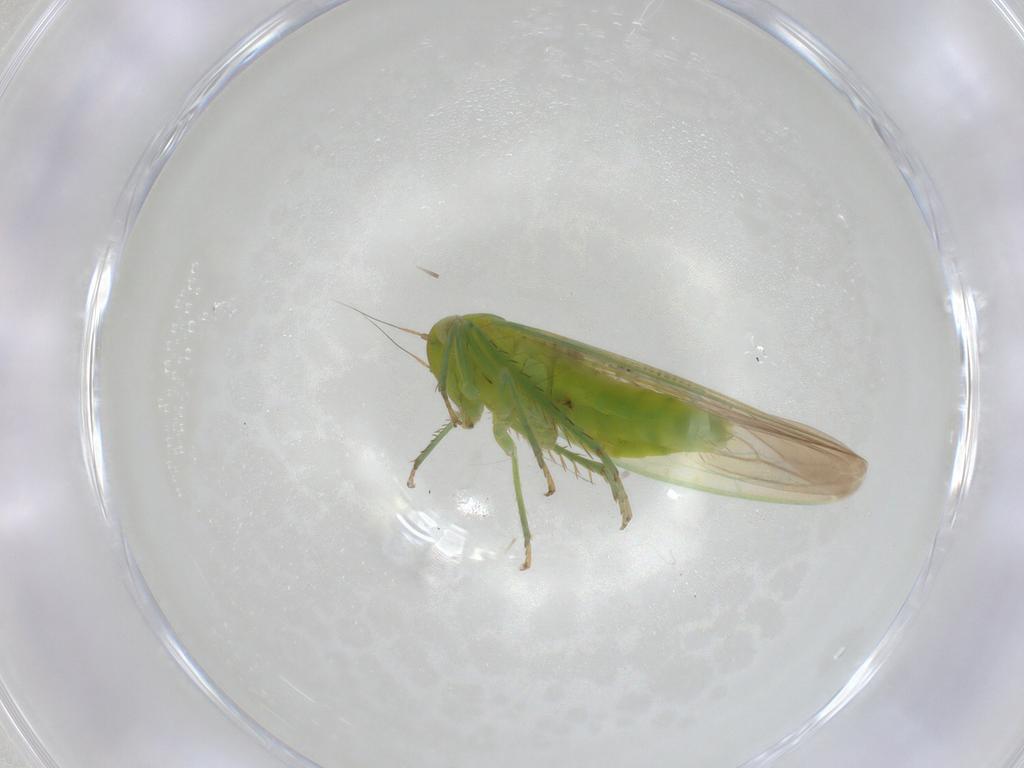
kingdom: Animalia
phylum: Arthropoda
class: Insecta
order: Hemiptera
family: Cicadellidae
